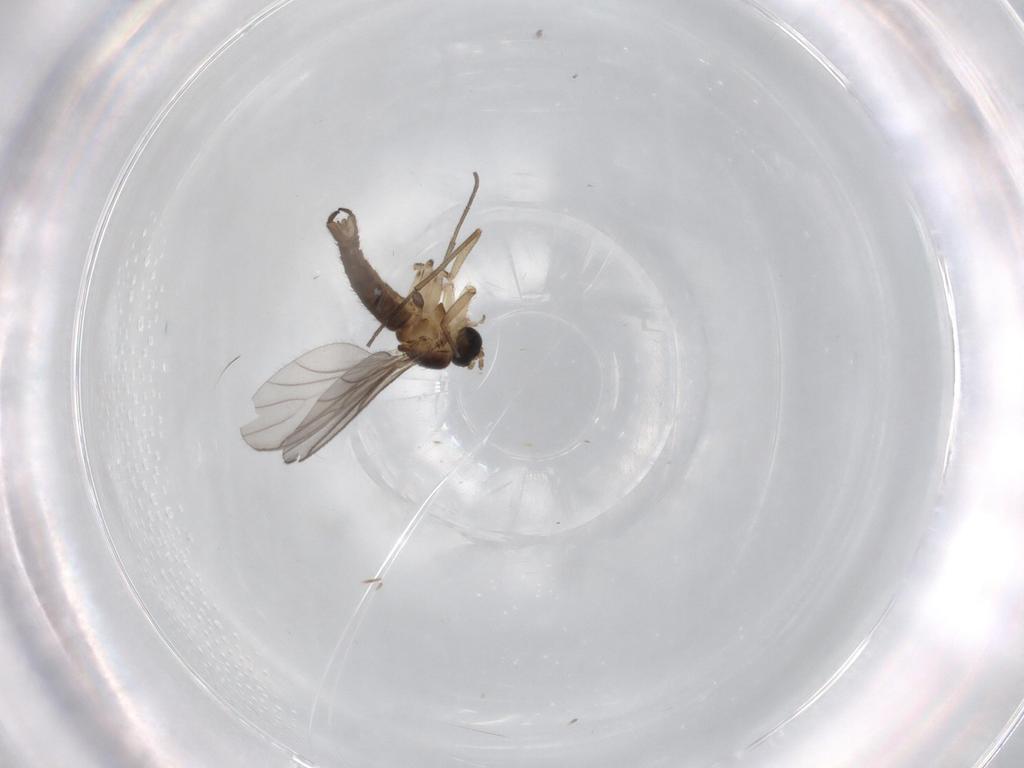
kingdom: Animalia
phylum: Arthropoda
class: Insecta
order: Diptera
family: Sciaridae
